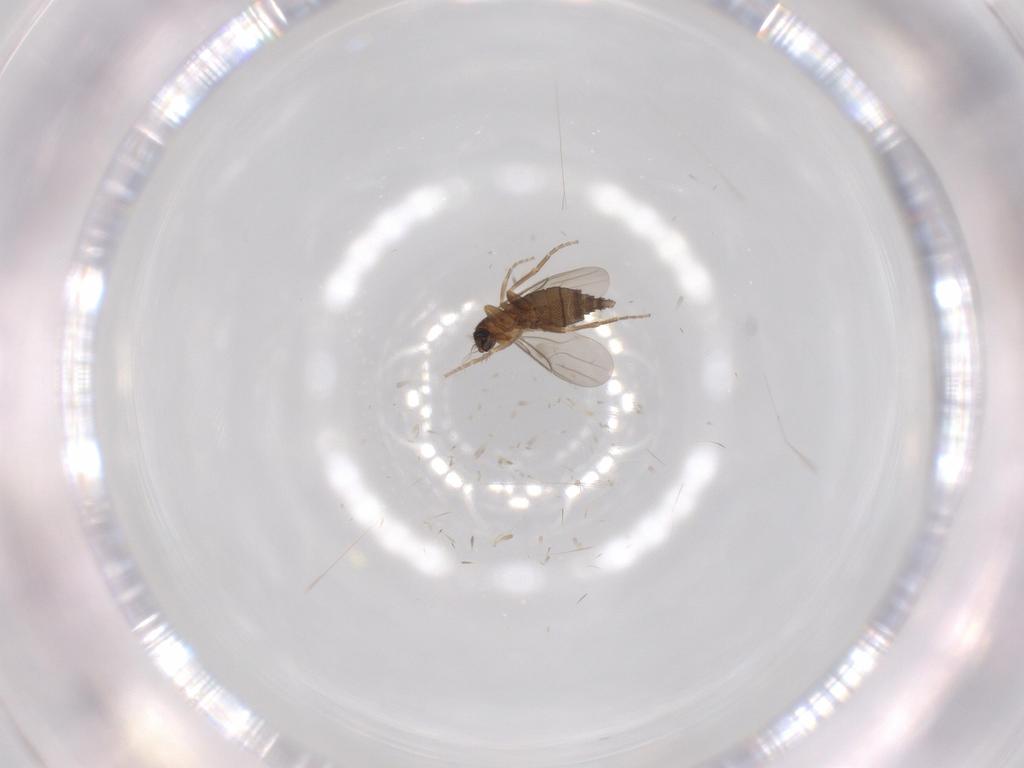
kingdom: Animalia
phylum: Arthropoda
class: Insecta
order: Diptera
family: Phoridae
